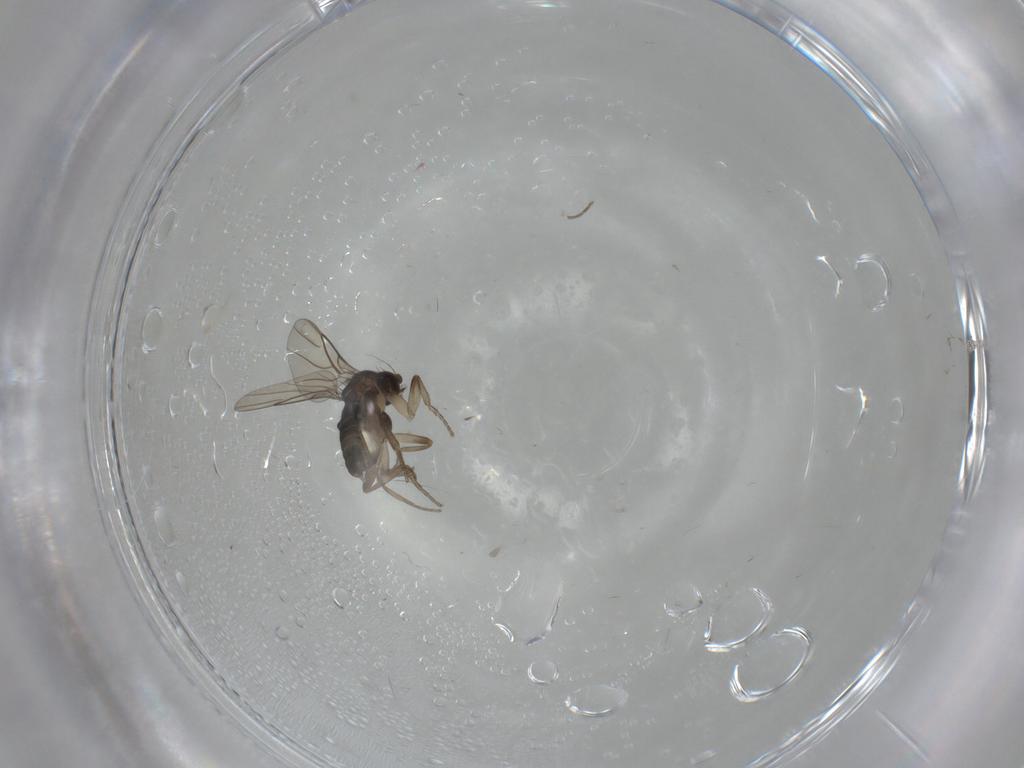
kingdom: Animalia
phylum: Arthropoda
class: Insecta
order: Diptera
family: Phoridae
